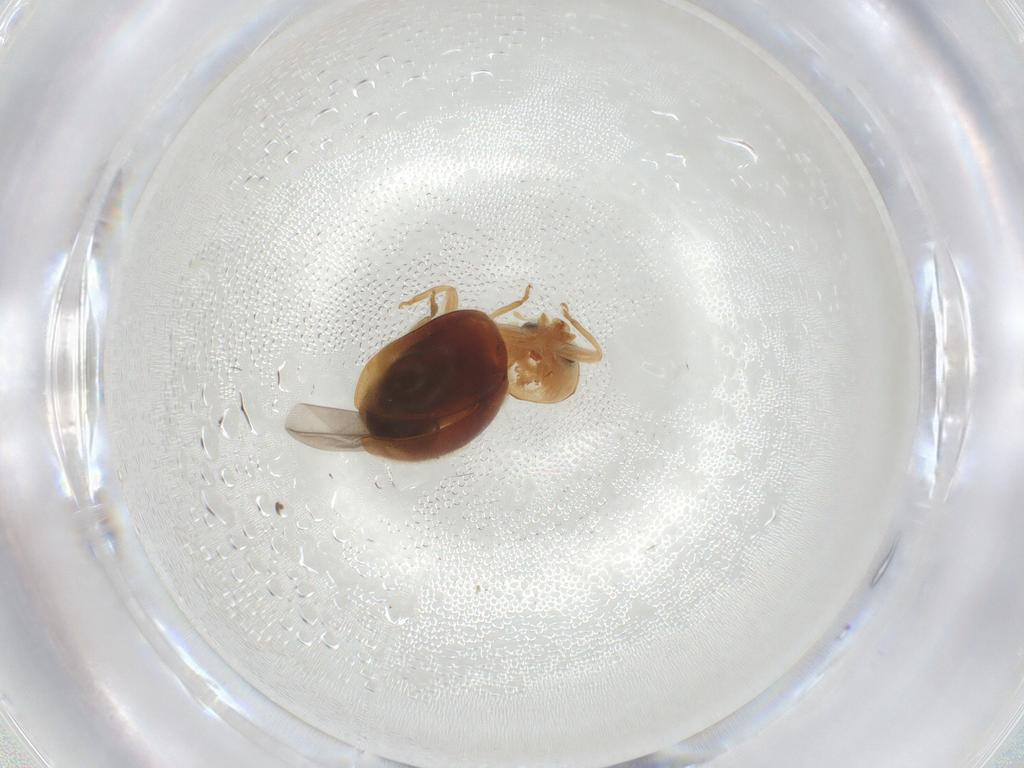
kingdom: Animalia
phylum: Arthropoda
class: Insecta
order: Coleoptera
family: Coccinellidae
